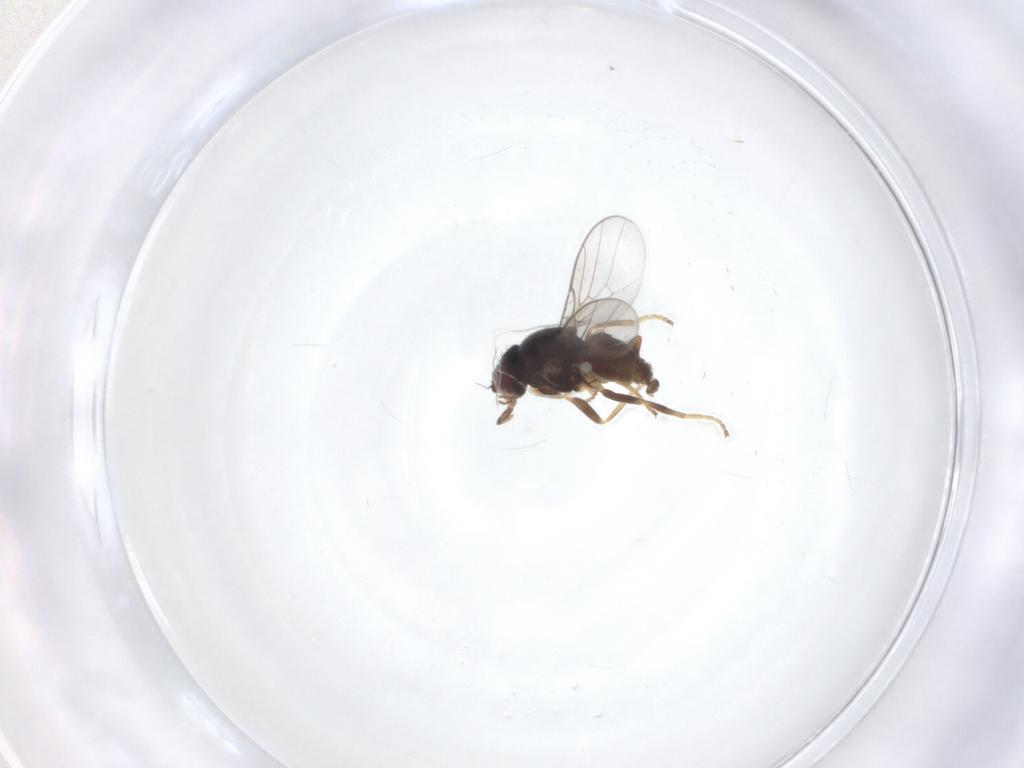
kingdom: Animalia
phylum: Arthropoda
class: Insecta
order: Diptera
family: Chloropidae
